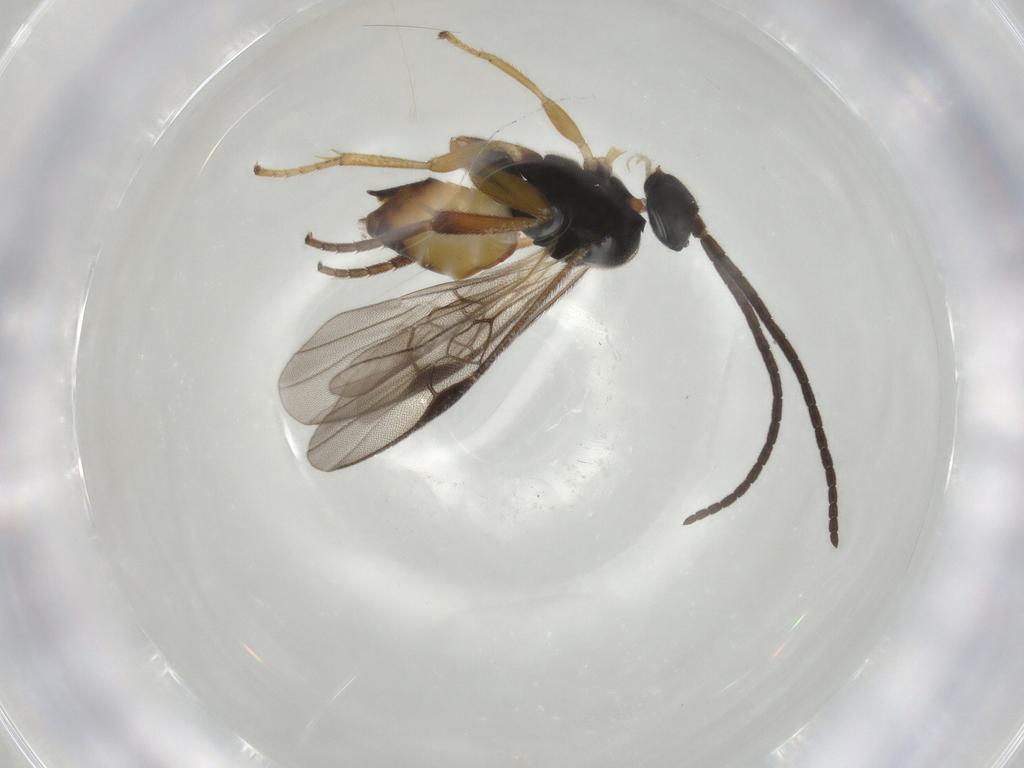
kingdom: Animalia
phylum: Arthropoda
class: Insecta
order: Hymenoptera
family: Braconidae
